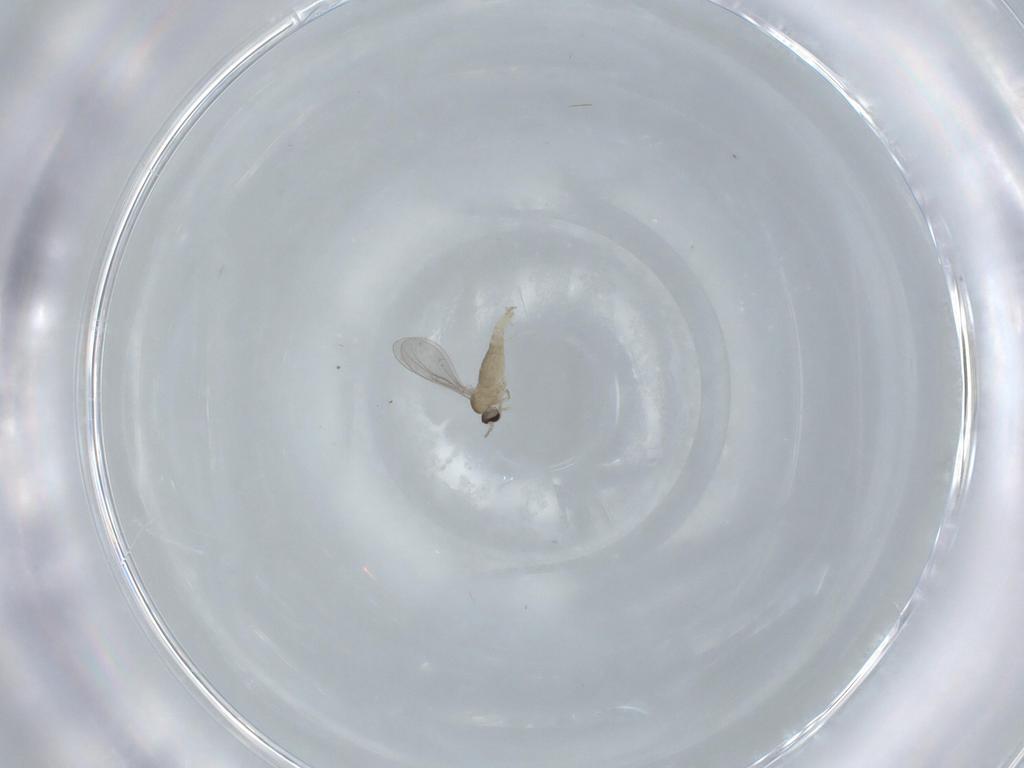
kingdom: Animalia
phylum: Arthropoda
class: Insecta
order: Diptera
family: Cecidomyiidae
